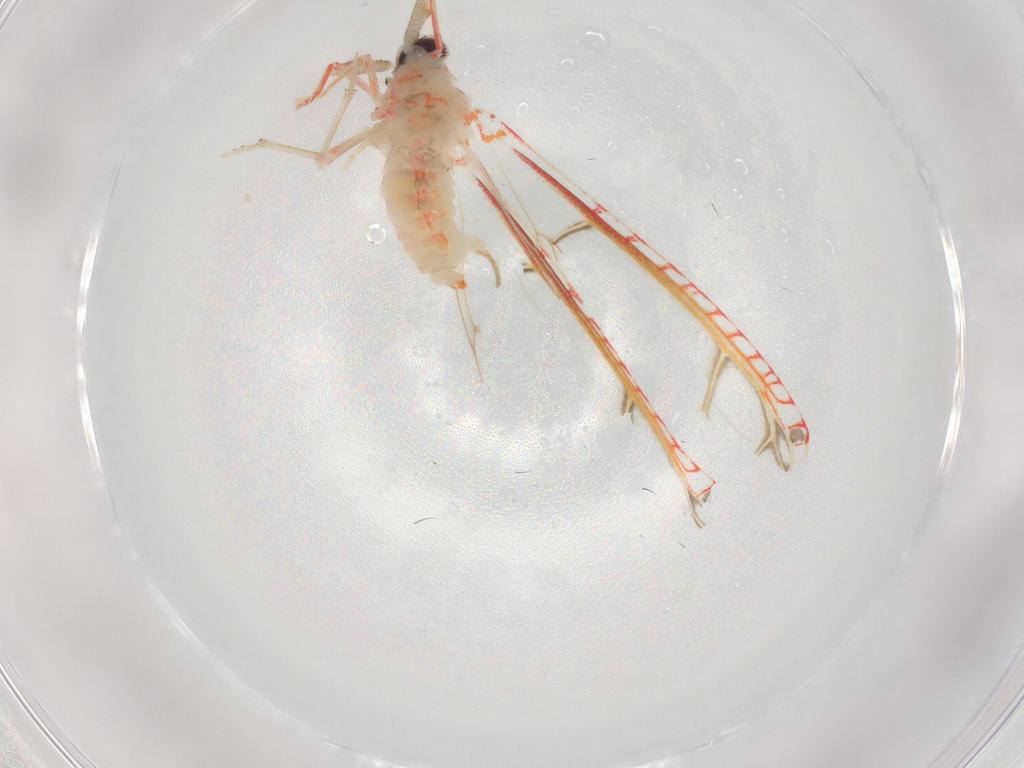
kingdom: Animalia
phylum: Arthropoda
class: Insecta
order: Hemiptera
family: Derbidae
